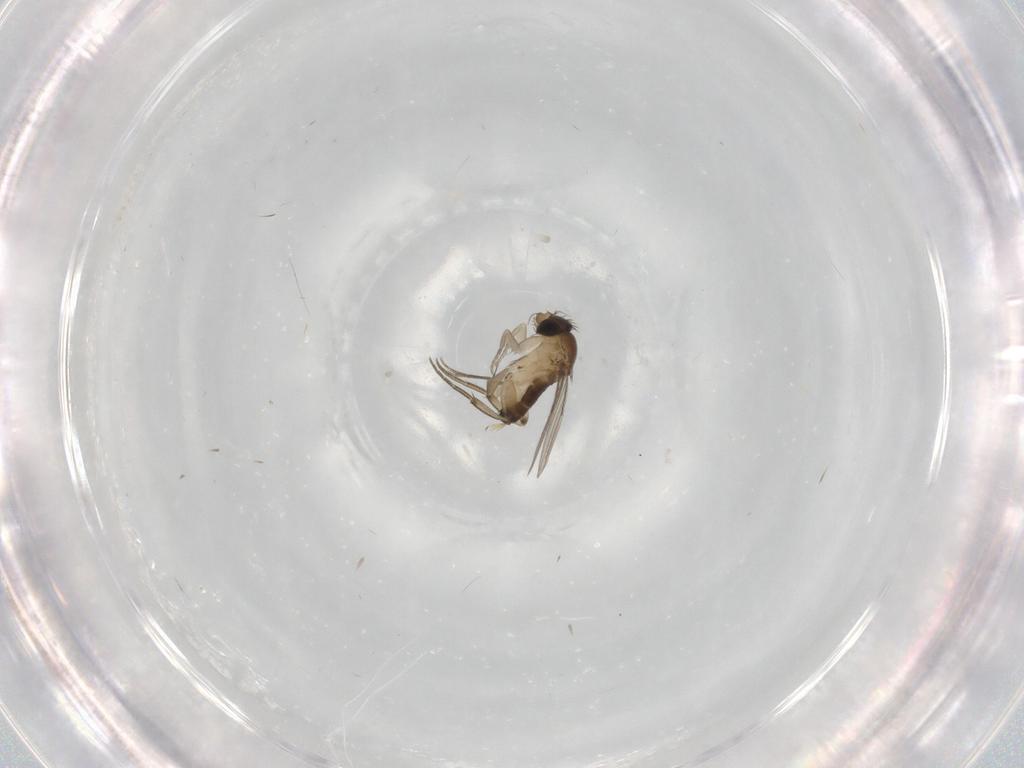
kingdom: Animalia
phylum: Arthropoda
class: Insecta
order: Diptera
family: Phoridae
